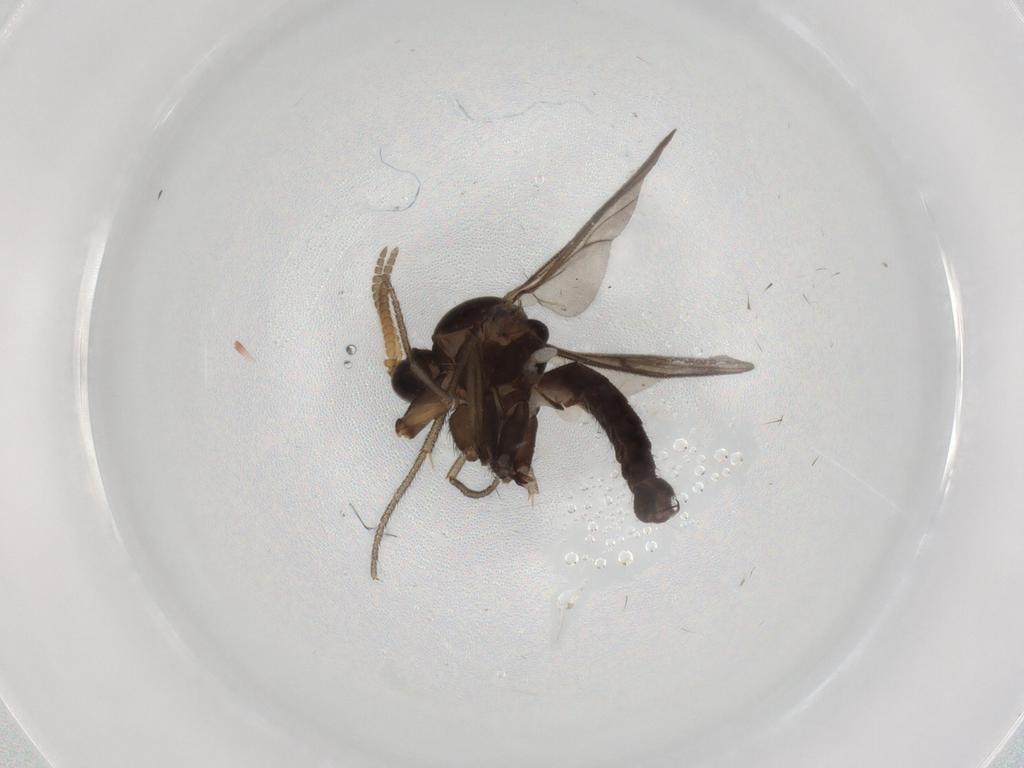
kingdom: Animalia
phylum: Arthropoda
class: Insecta
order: Diptera
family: Mycetophilidae
